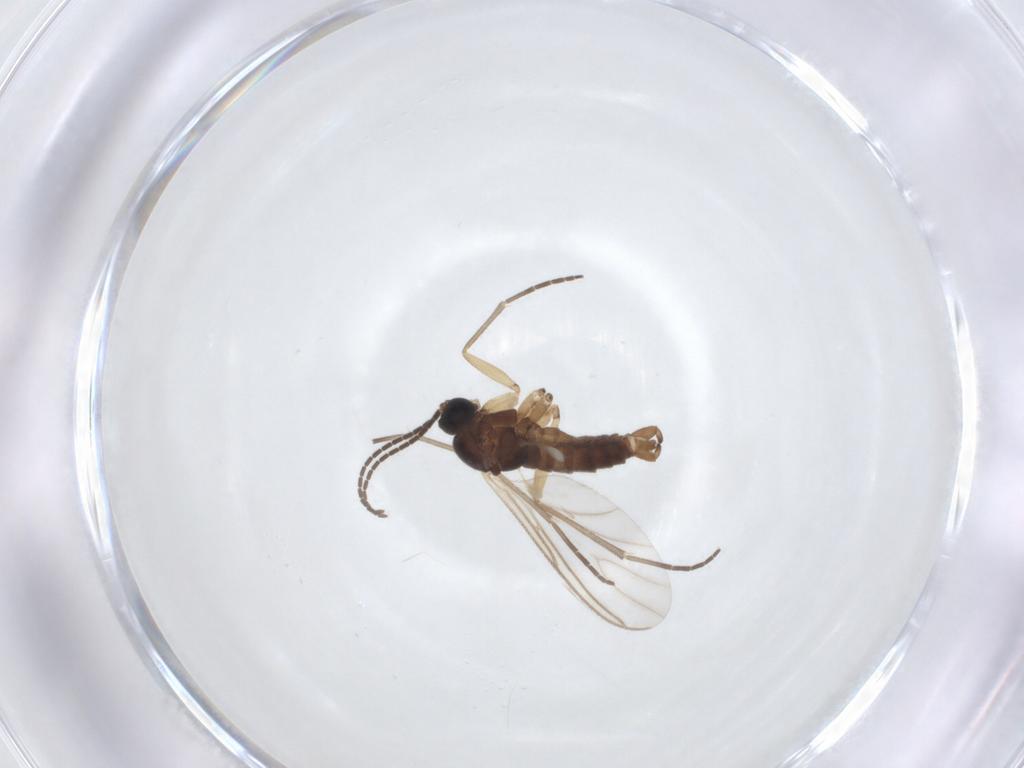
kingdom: Animalia
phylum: Arthropoda
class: Insecta
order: Diptera
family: Sciaridae
